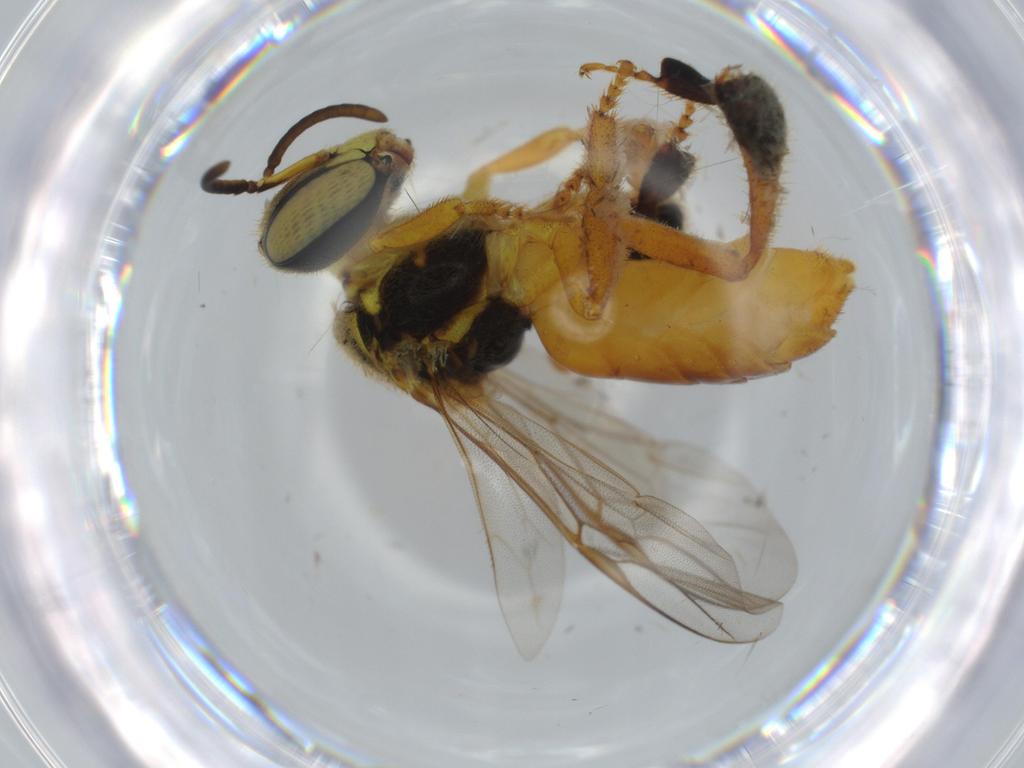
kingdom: Animalia
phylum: Arthropoda
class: Insecta
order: Hymenoptera
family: Apidae
